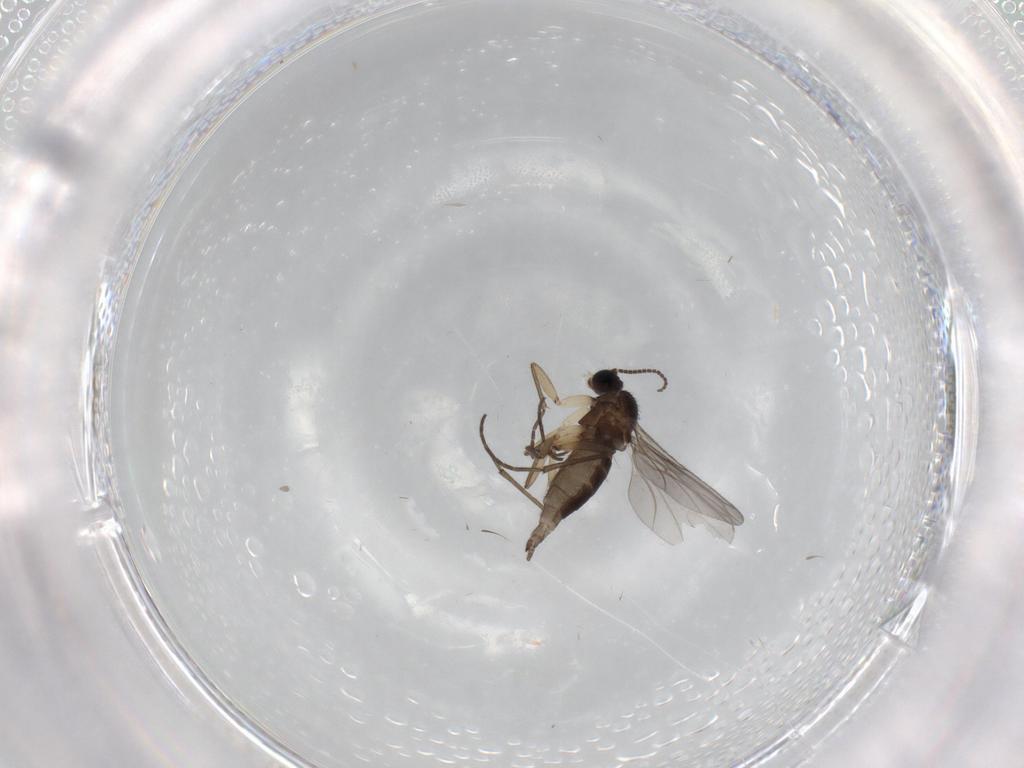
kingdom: Animalia
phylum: Arthropoda
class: Insecta
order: Diptera
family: Sciaridae
